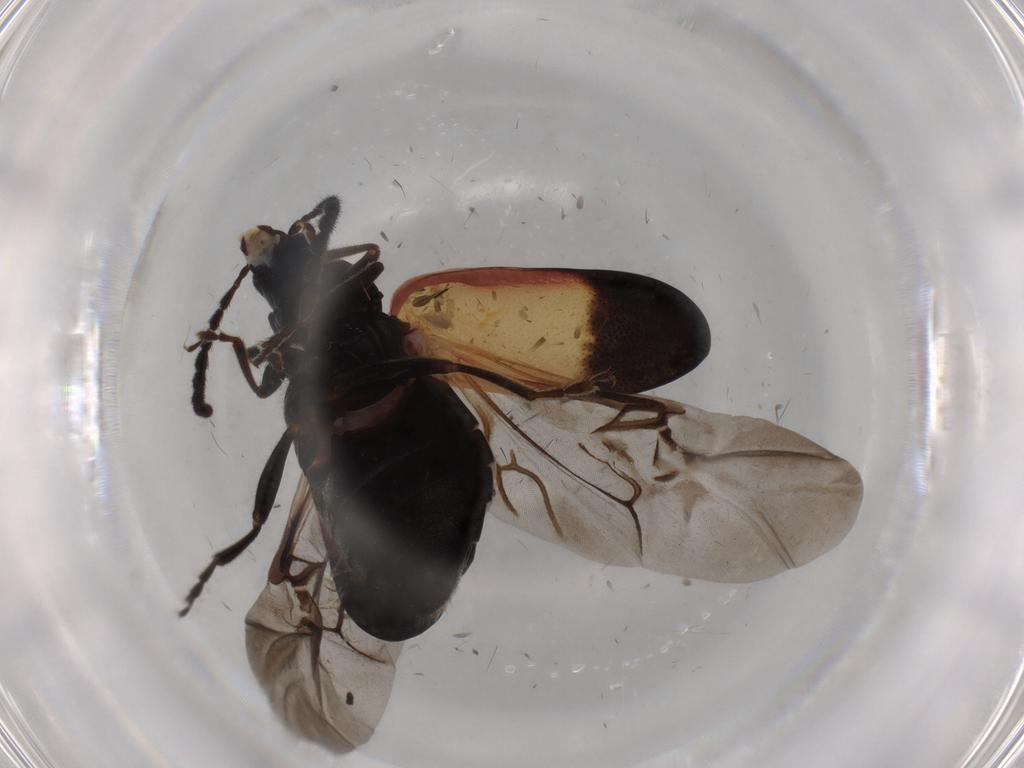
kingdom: Animalia
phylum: Arthropoda
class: Insecta
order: Coleoptera
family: Chrysomelidae
